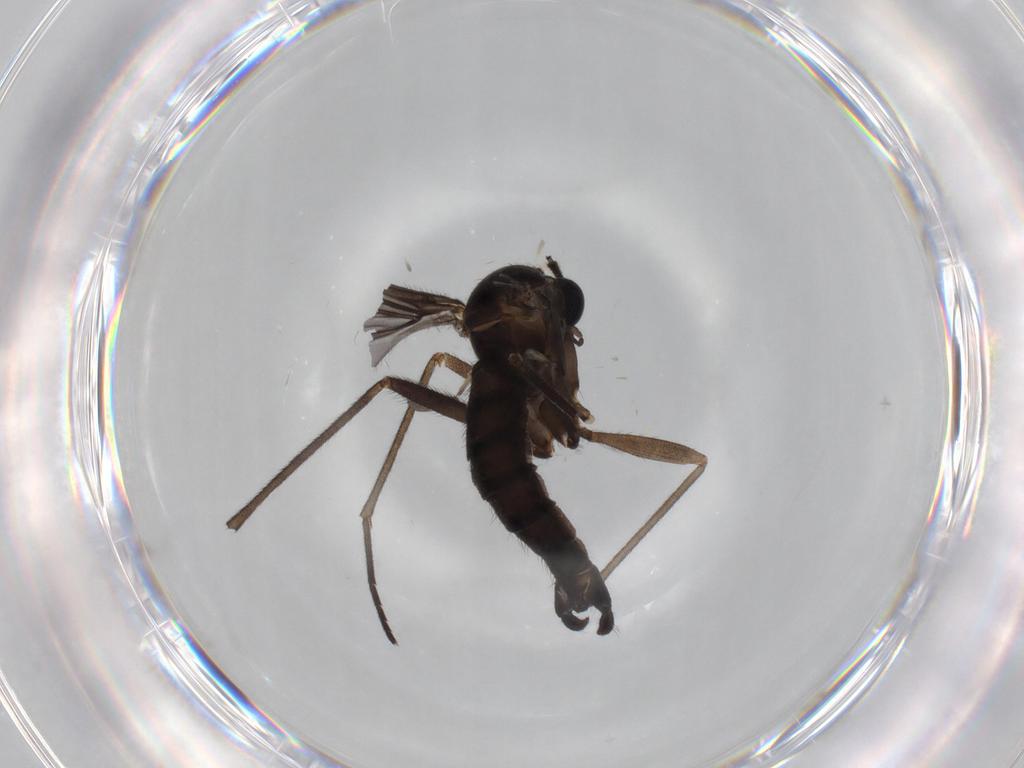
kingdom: Animalia
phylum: Arthropoda
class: Insecta
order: Diptera
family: Sciaridae
